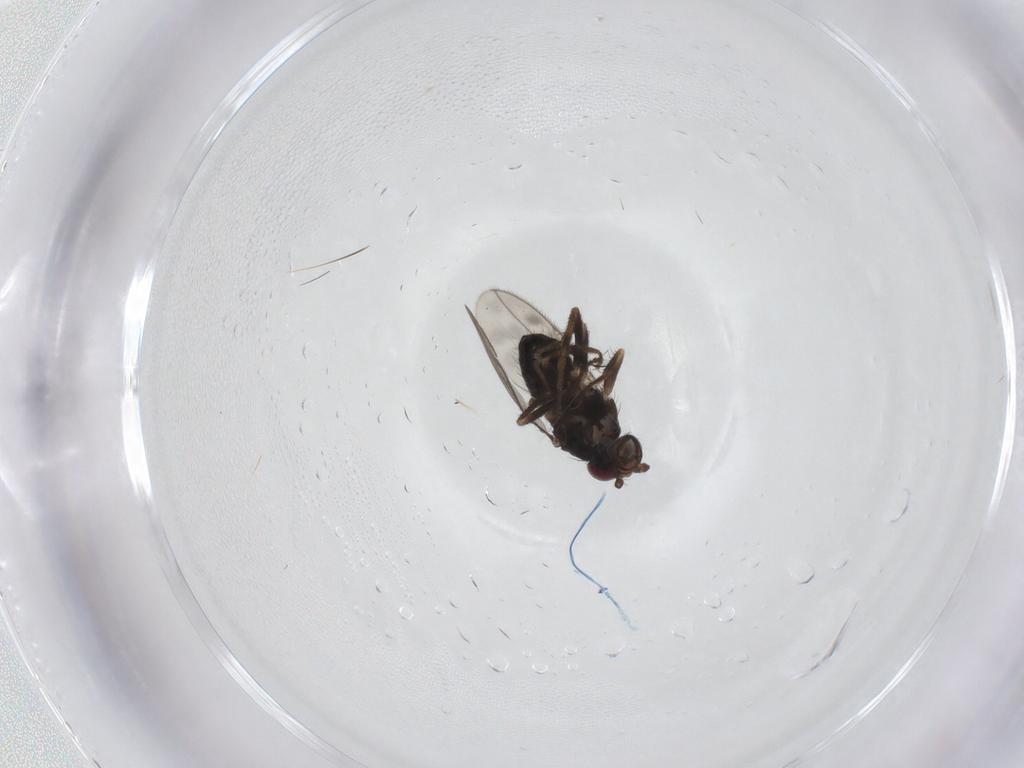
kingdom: Animalia
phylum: Arthropoda
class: Insecta
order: Diptera
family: Sphaeroceridae
